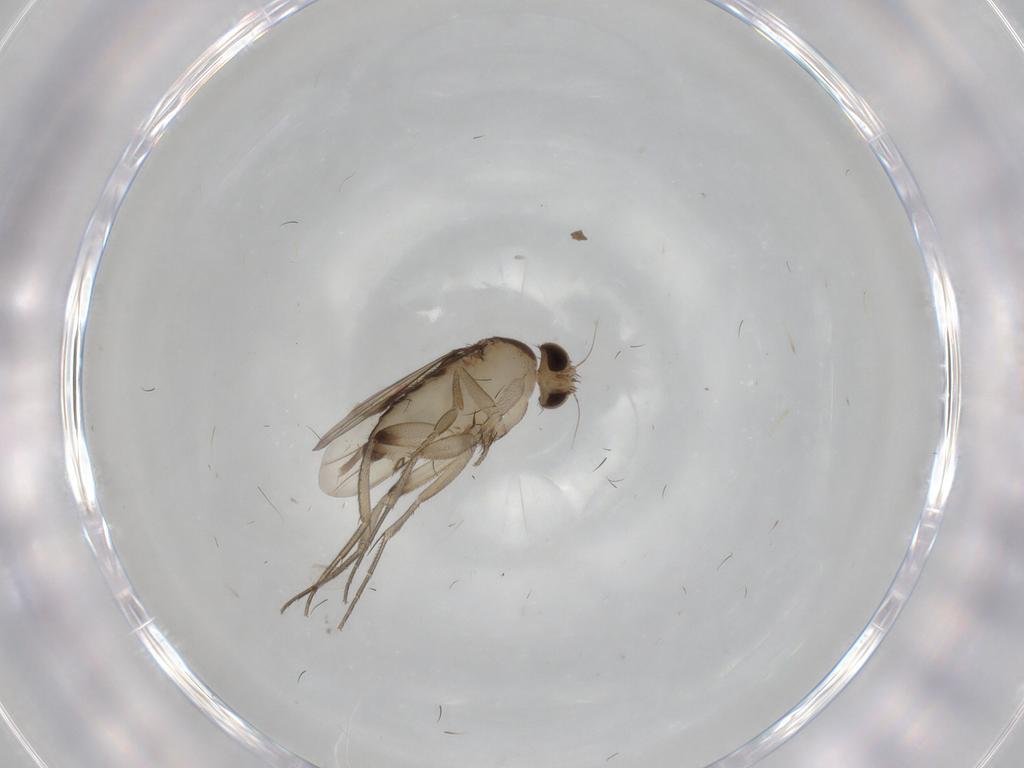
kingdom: Animalia
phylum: Arthropoda
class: Insecta
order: Diptera
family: Phoridae
